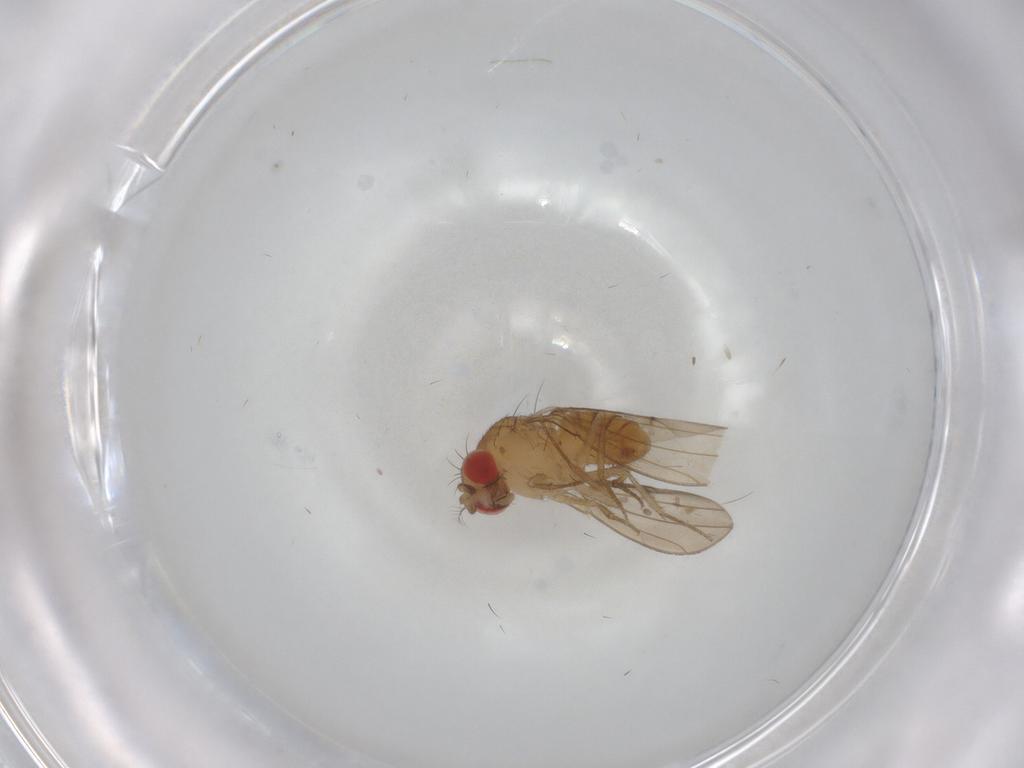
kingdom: Animalia
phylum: Arthropoda
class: Insecta
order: Diptera
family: Drosophilidae
